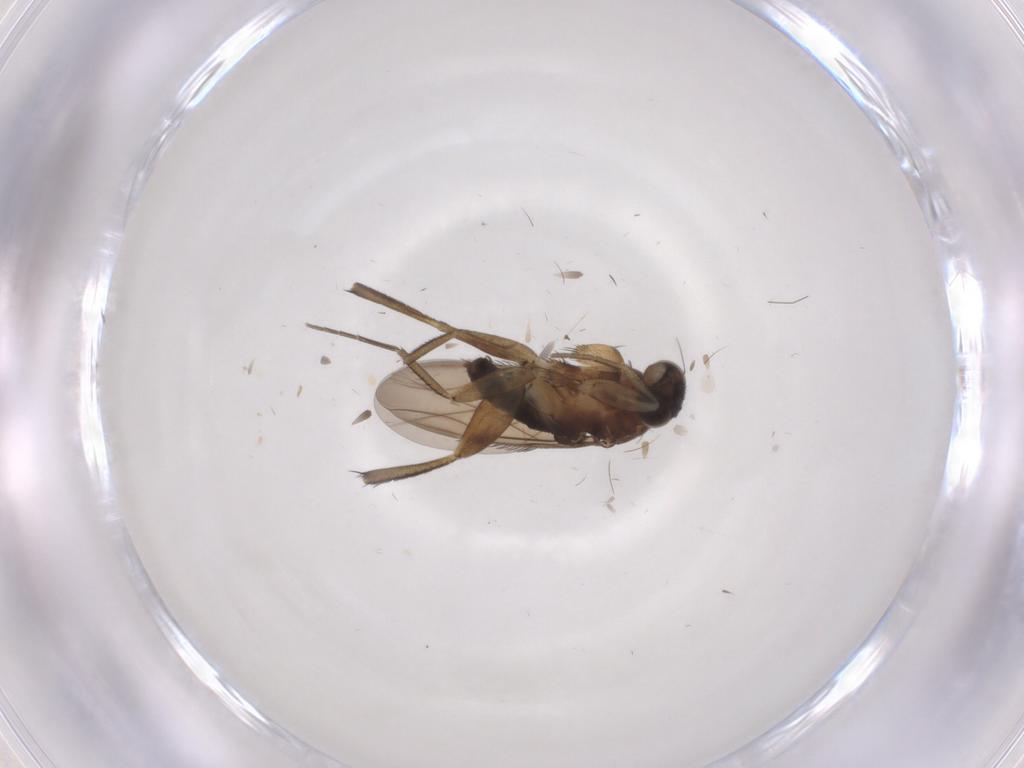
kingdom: Animalia
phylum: Arthropoda
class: Insecta
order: Diptera
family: Phoridae
